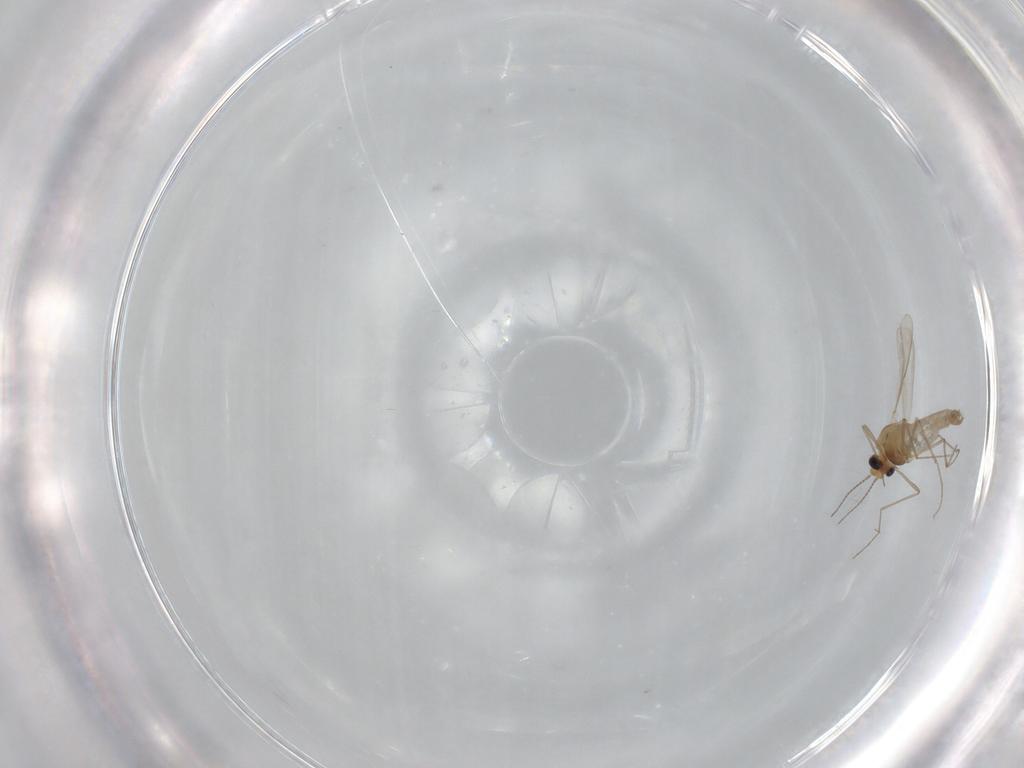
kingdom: Animalia
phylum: Arthropoda
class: Insecta
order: Diptera
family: Chironomidae
